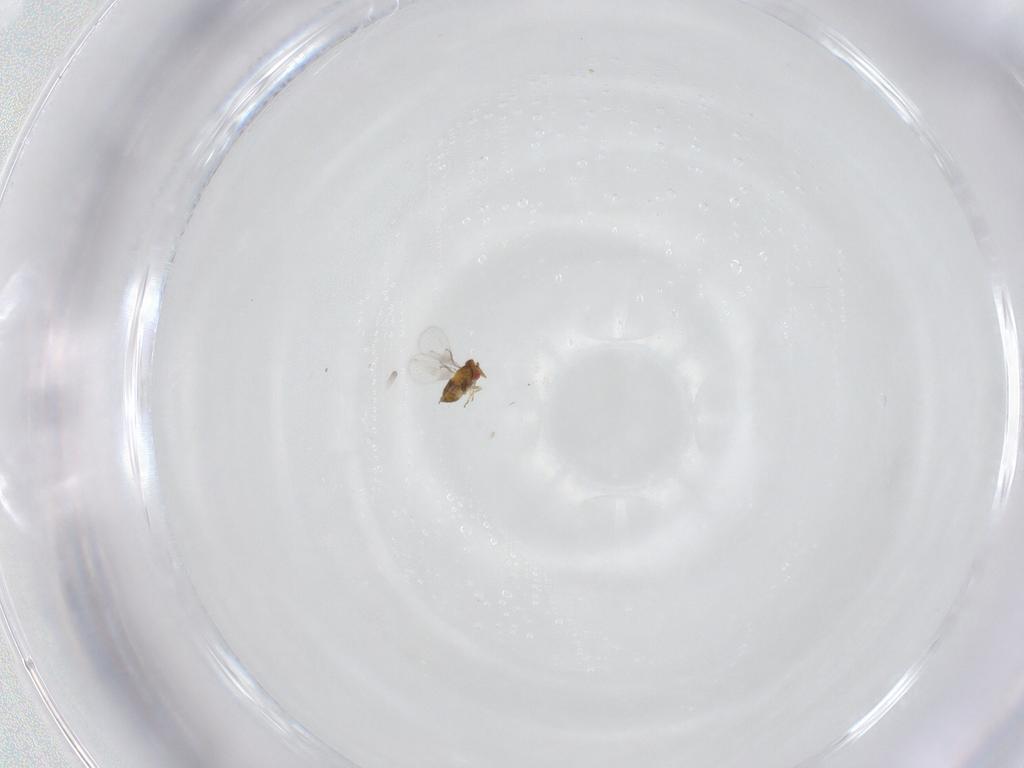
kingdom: Animalia
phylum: Arthropoda
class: Insecta
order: Hymenoptera
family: Trichogrammatidae
